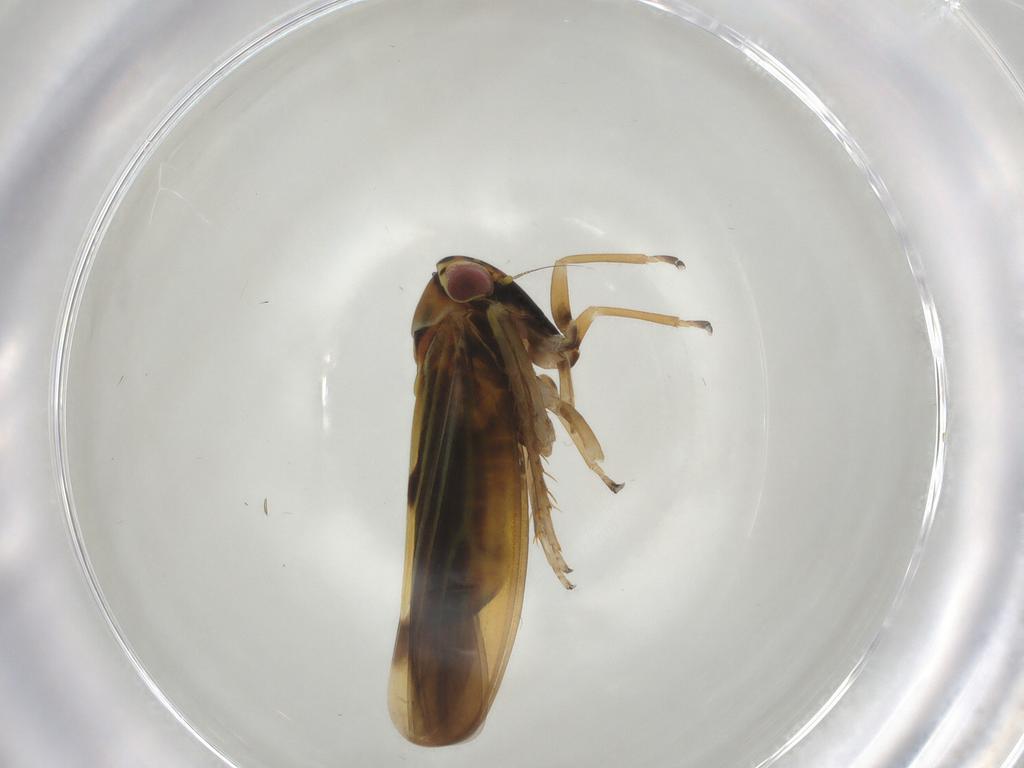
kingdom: Animalia
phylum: Arthropoda
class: Insecta
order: Hemiptera
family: Cicadellidae
